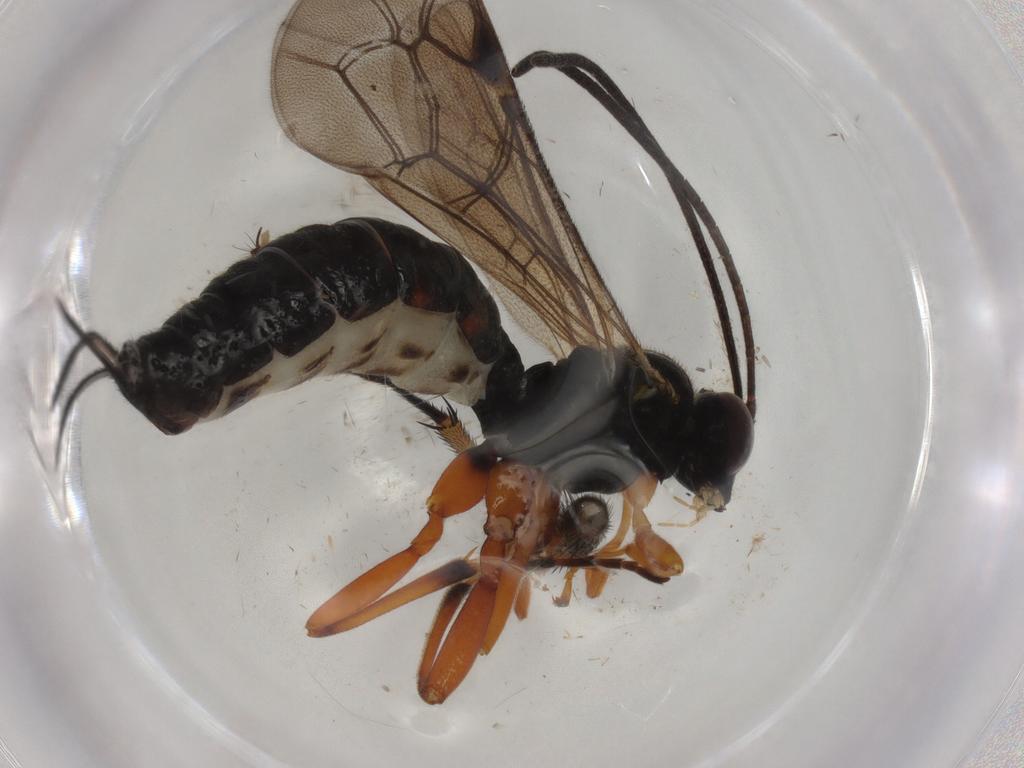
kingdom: Animalia
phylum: Arthropoda
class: Insecta
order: Hymenoptera
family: Ichneumonidae
